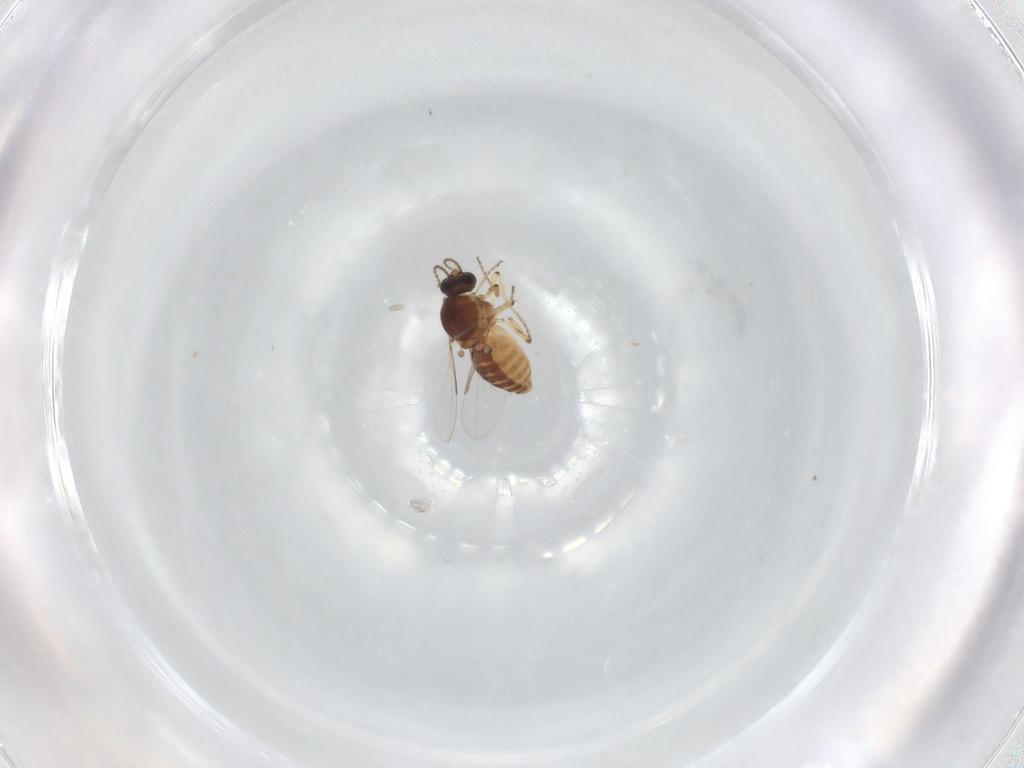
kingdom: Animalia
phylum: Arthropoda
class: Insecta
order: Diptera
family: Ceratopogonidae
